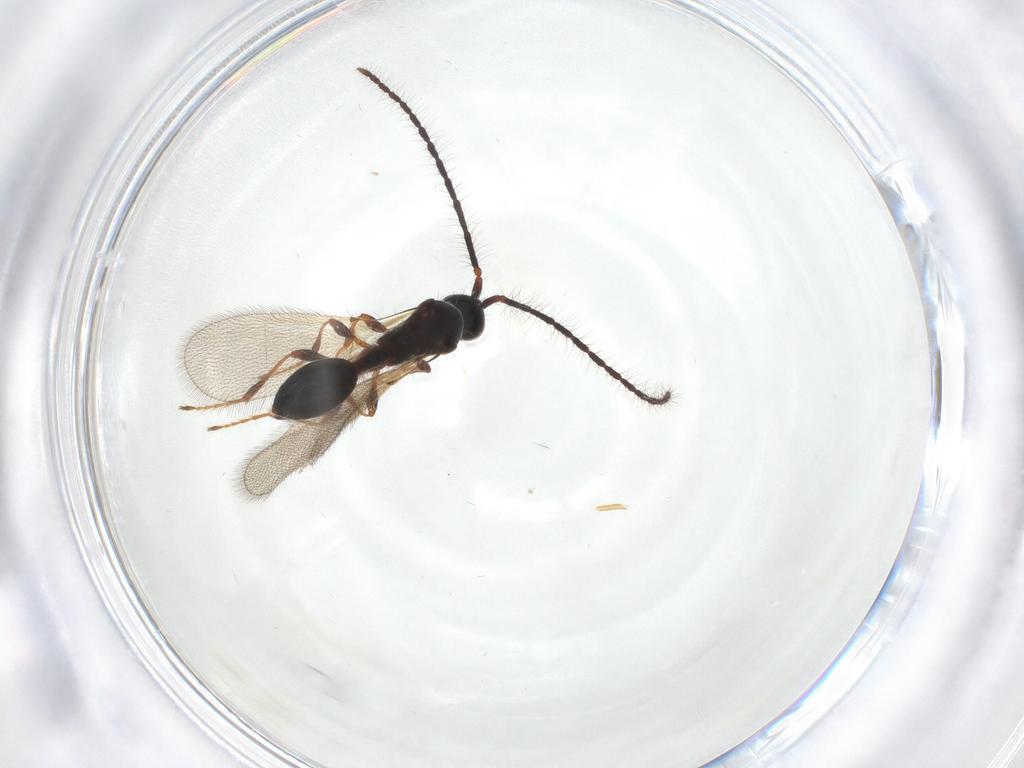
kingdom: Animalia
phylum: Arthropoda
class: Insecta
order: Hymenoptera
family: Diapriidae
